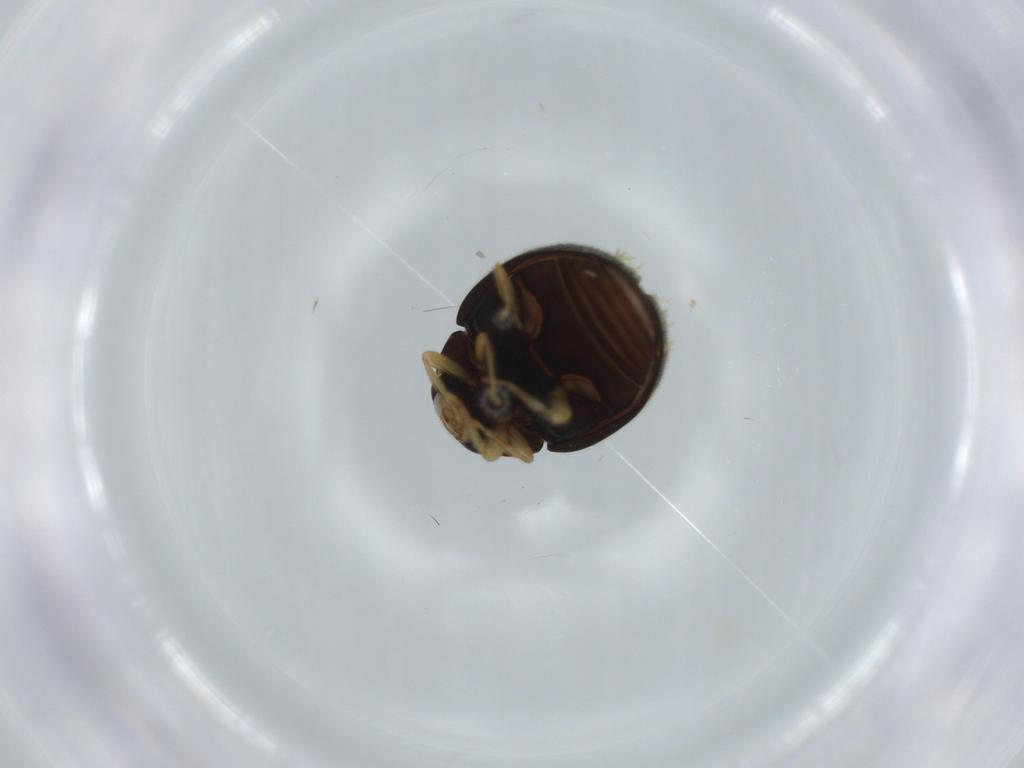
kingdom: Animalia
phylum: Arthropoda
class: Insecta
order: Coleoptera
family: Coccinellidae
